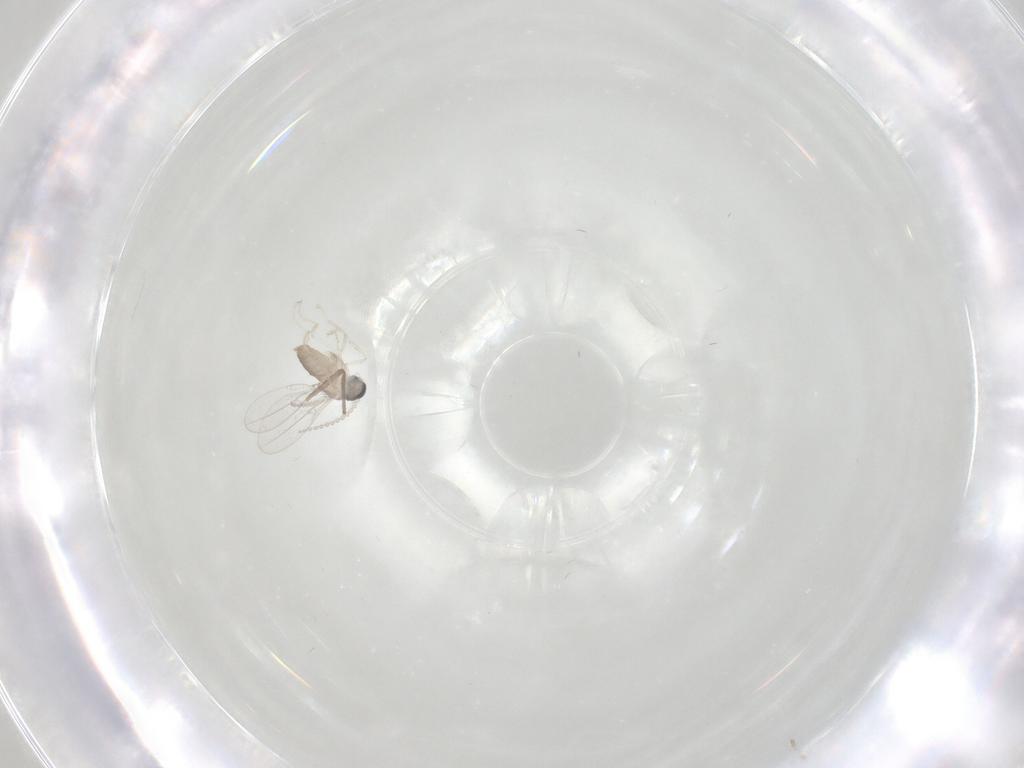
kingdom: Animalia
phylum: Arthropoda
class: Insecta
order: Diptera
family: Cecidomyiidae
